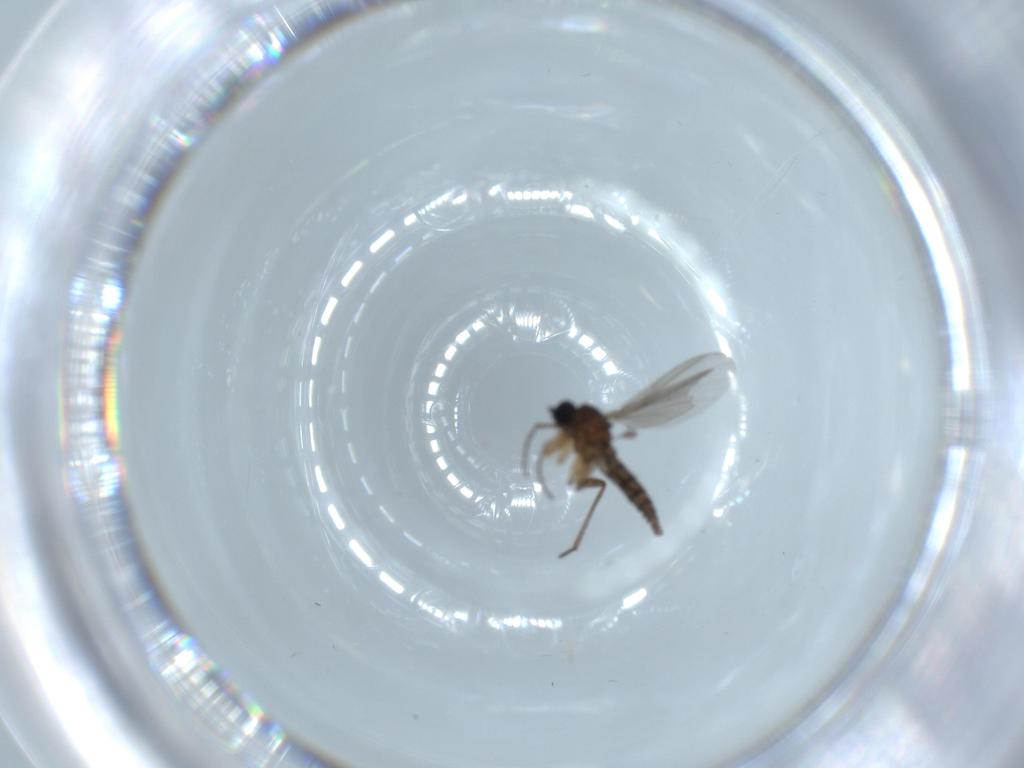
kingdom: Animalia
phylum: Arthropoda
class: Insecta
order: Diptera
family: Sciaridae
